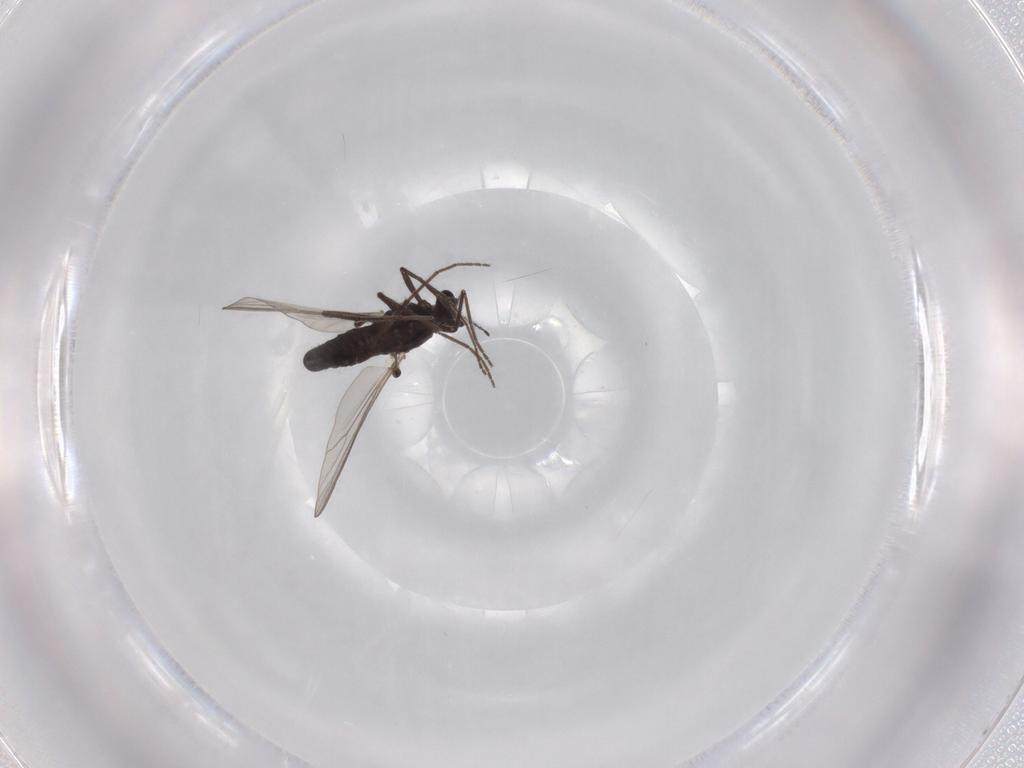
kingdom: Animalia
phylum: Arthropoda
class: Insecta
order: Diptera
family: Chironomidae
